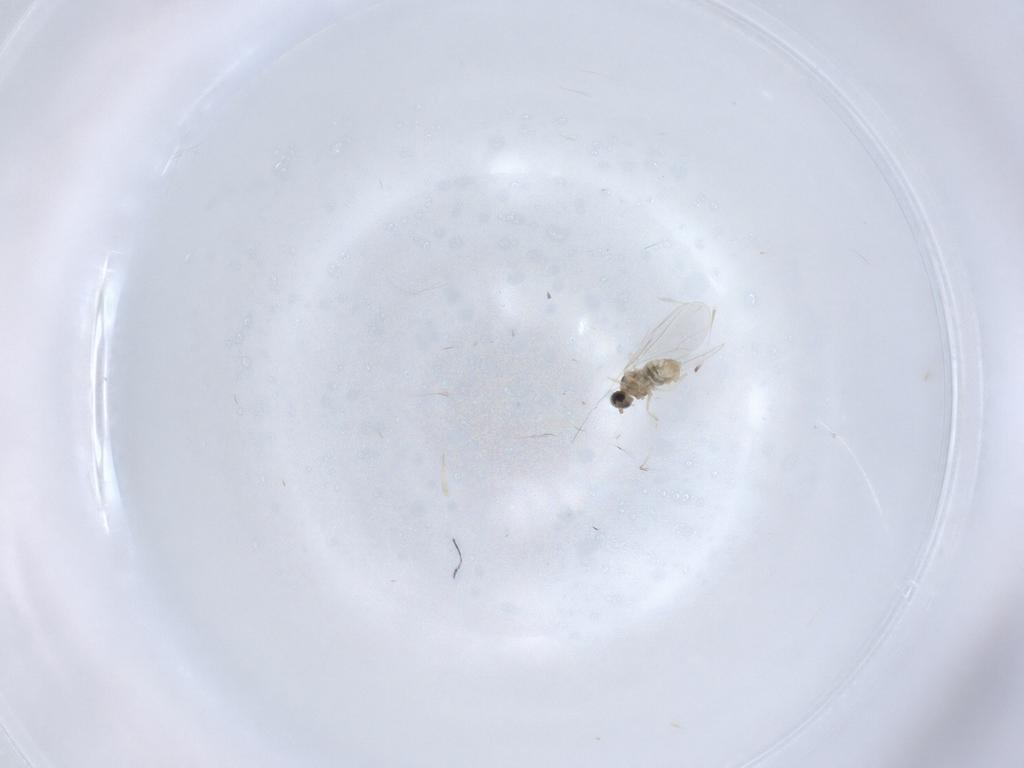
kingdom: Animalia
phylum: Arthropoda
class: Insecta
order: Diptera
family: Cecidomyiidae
